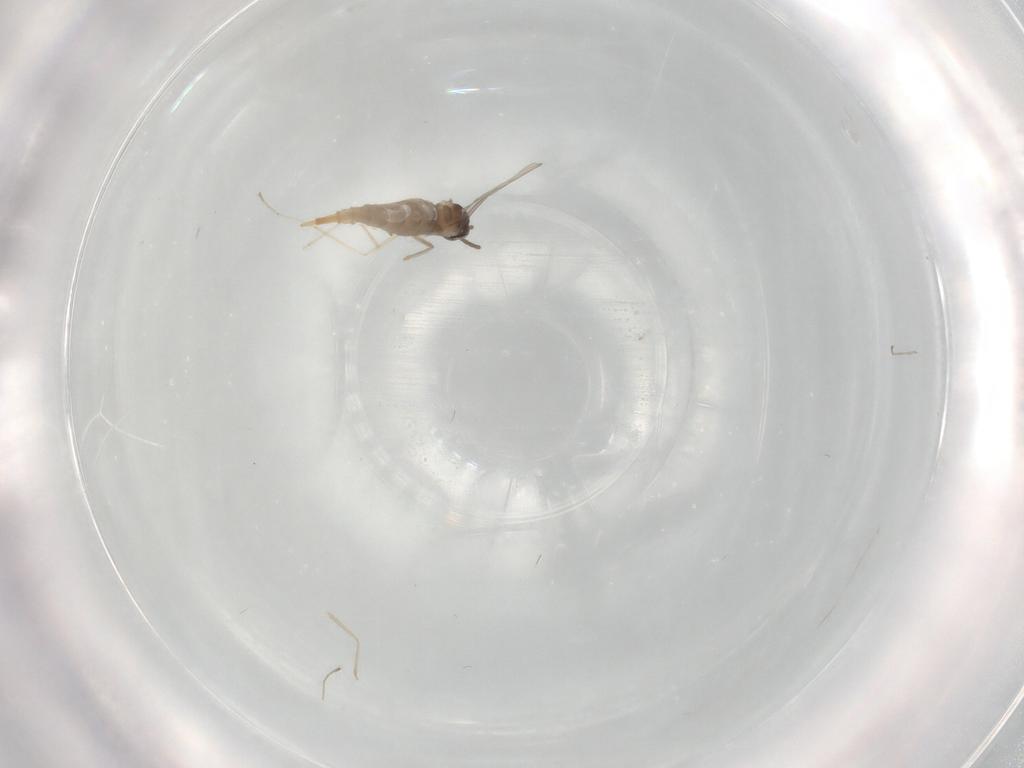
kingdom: Animalia
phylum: Arthropoda
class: Insecta
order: Diptera
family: Cecidomyiidae
